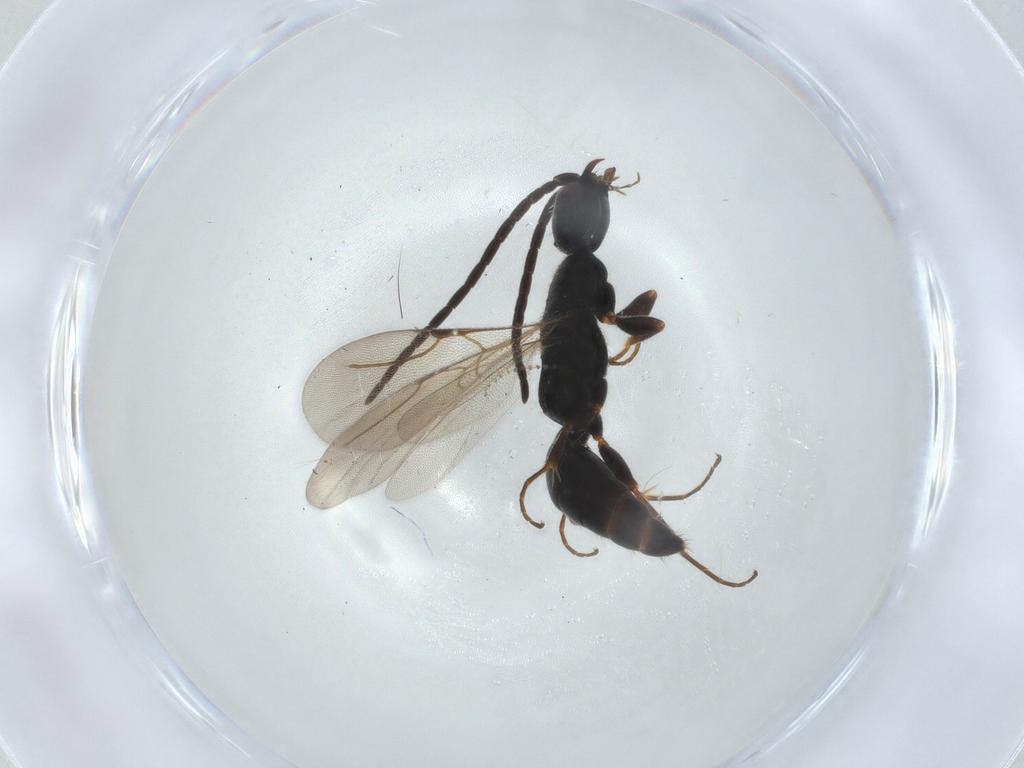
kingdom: Animalia
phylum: Arthropoda
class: Insecta
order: Hymenoptera
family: Bethylidae
